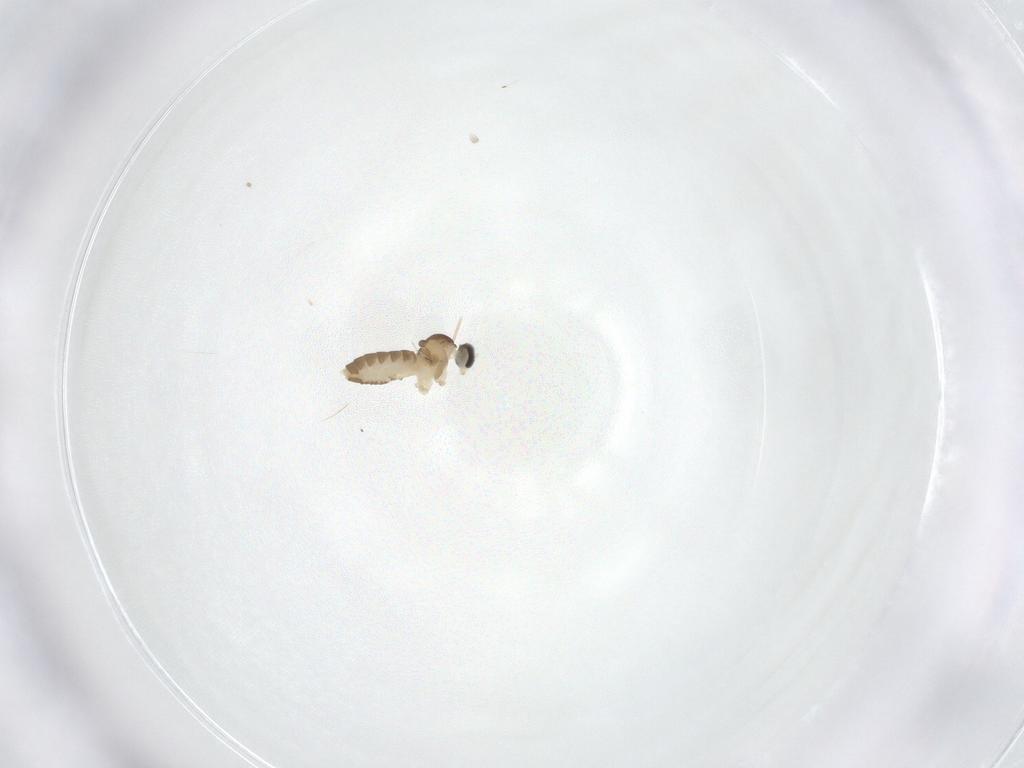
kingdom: Animalia
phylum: Arthropoda
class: Insecta
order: Diptera
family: Cecidomyiidae
